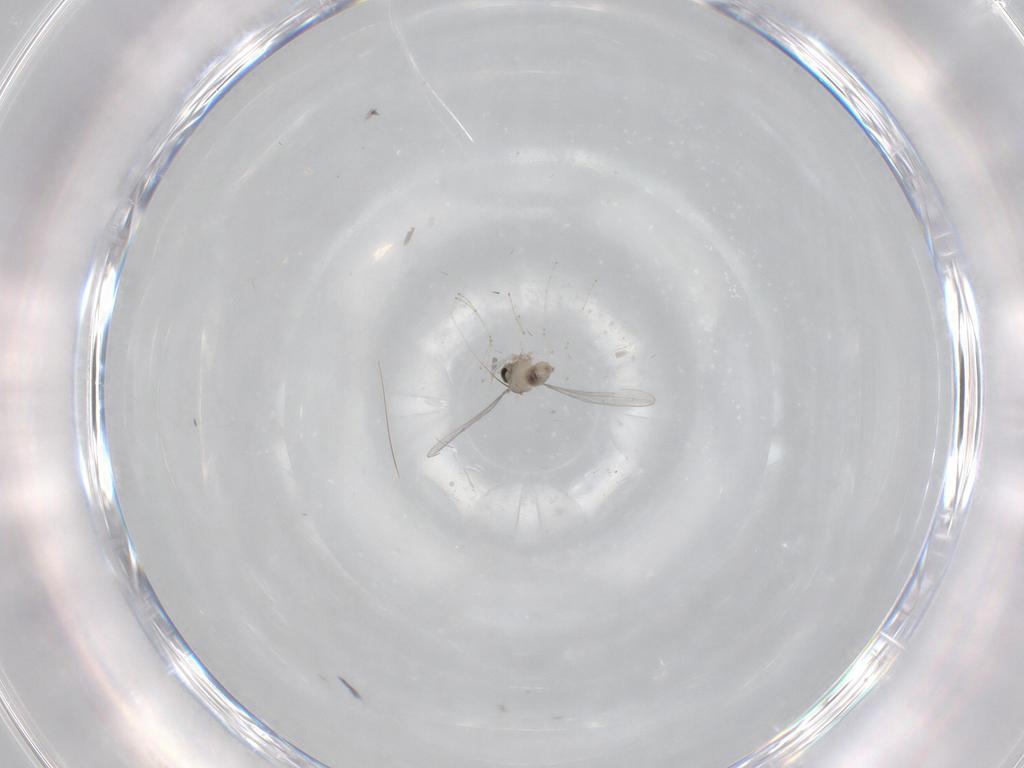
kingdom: Animalia
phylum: Arthropoda
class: Insecta
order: Diptera
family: Cecidomyiidae
